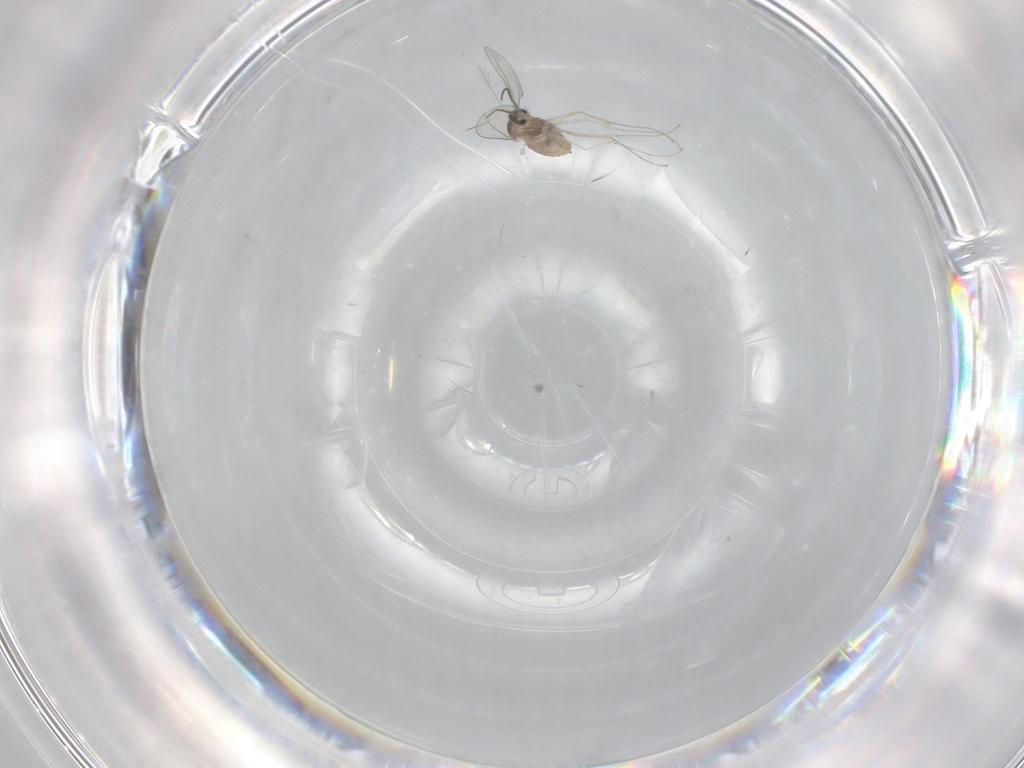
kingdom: Animalia
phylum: Arthropoda
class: Insecta
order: Diptera
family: Cecidomyiidae
